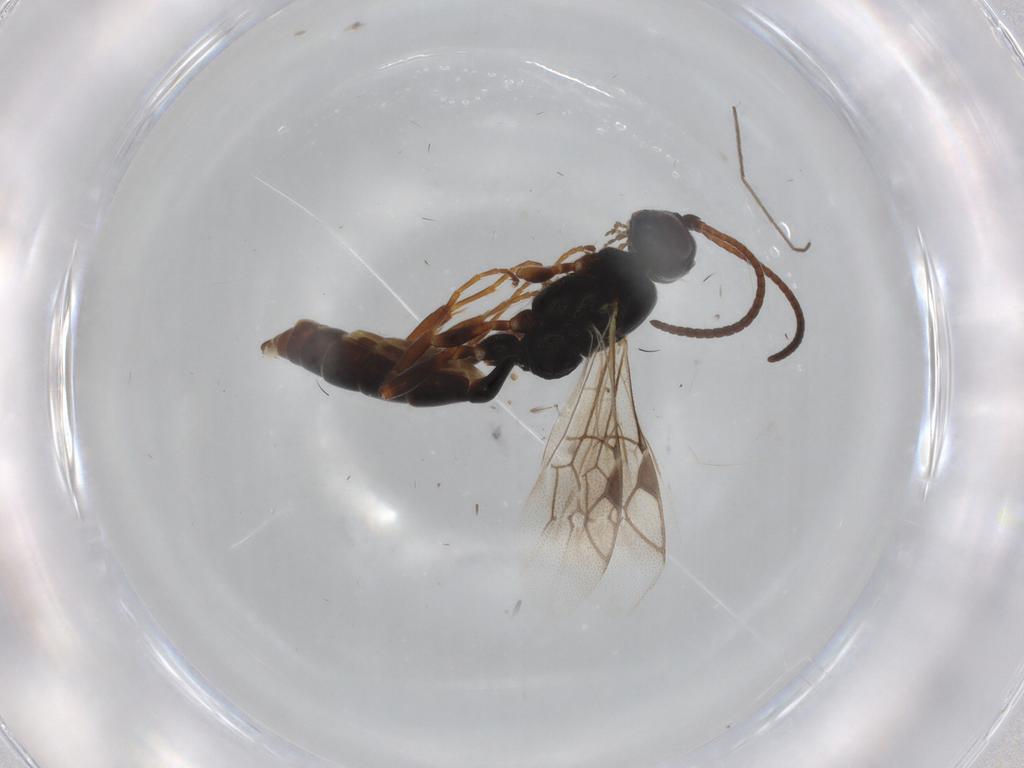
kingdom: Animalia
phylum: Arthropoda
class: Insecta
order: Hymenoptera
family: Ichneumonidae
